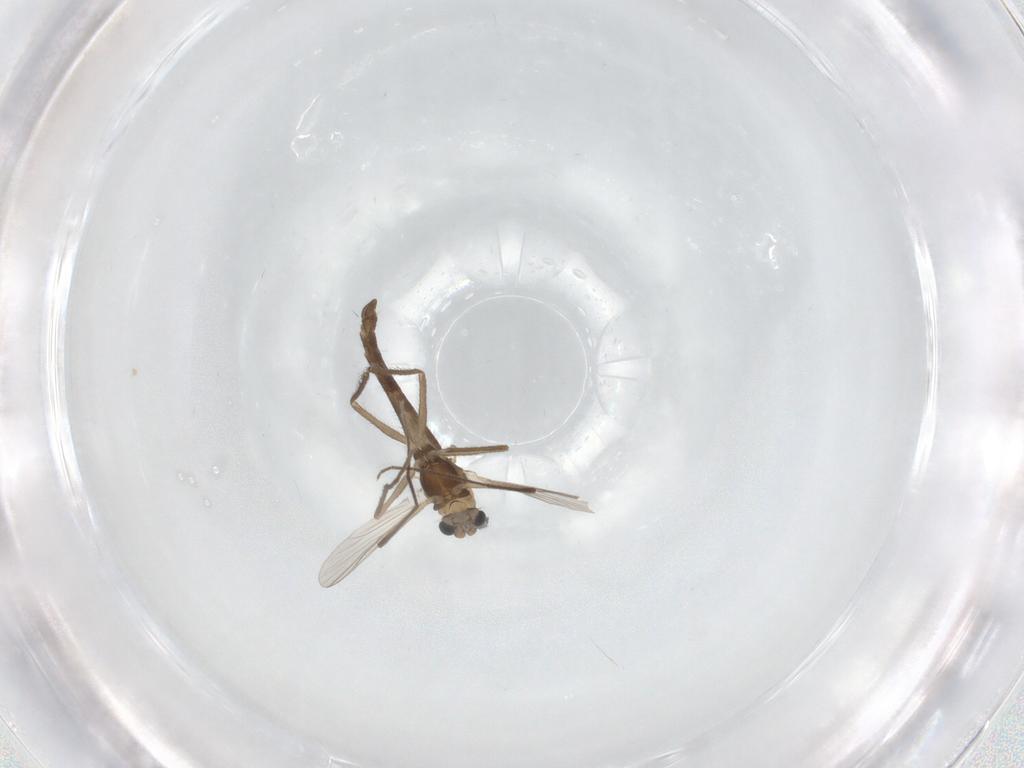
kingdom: Animalia
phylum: Arthropoda
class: Insecta
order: Diptera
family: Chironomidae
